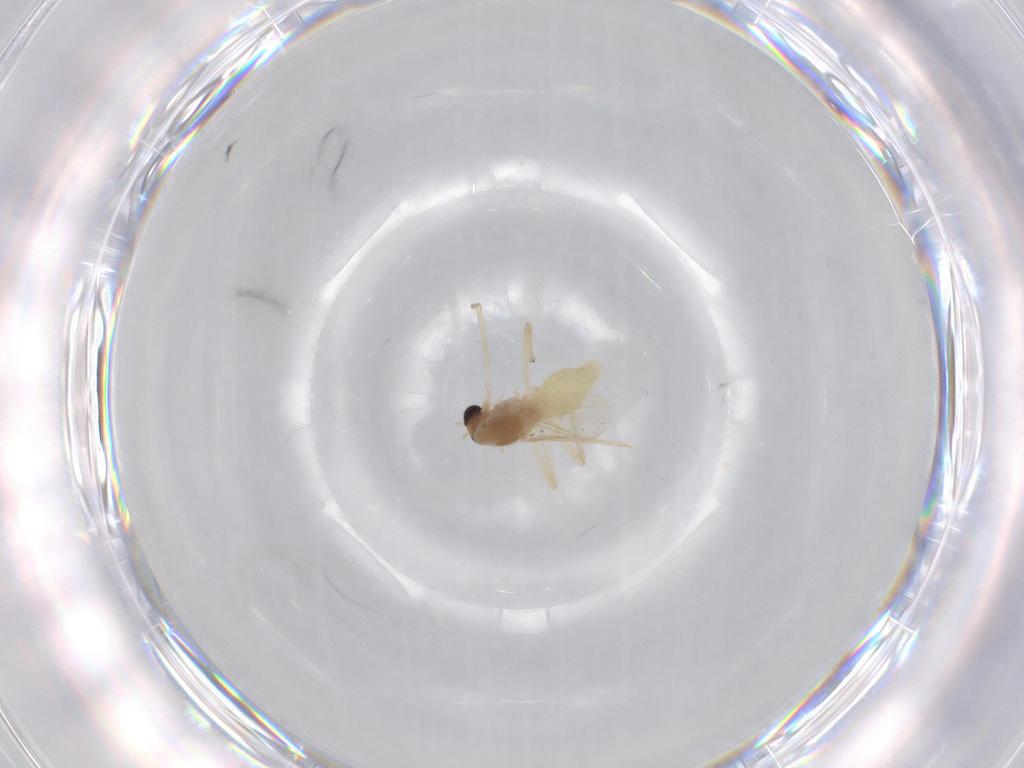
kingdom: Animalia
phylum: Arthropoda
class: Insecta
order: Diptera
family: Chironomidae
